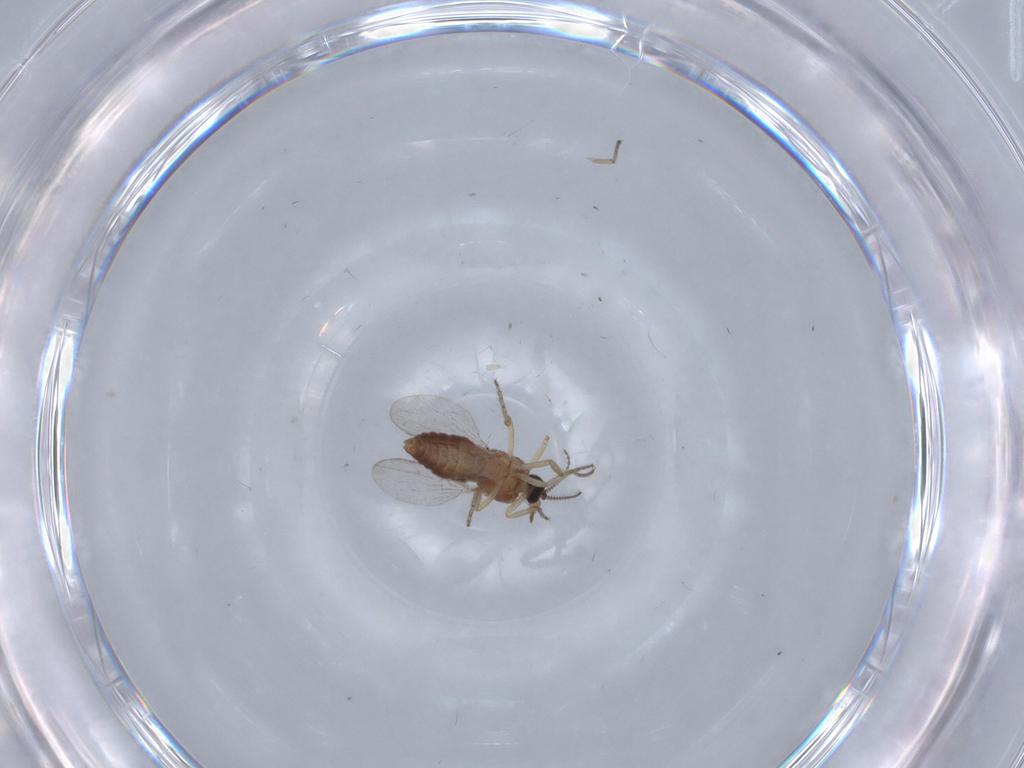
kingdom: Animalia
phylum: Arthropoda
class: Insecta
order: Diptera
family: Ceratopogonidae
